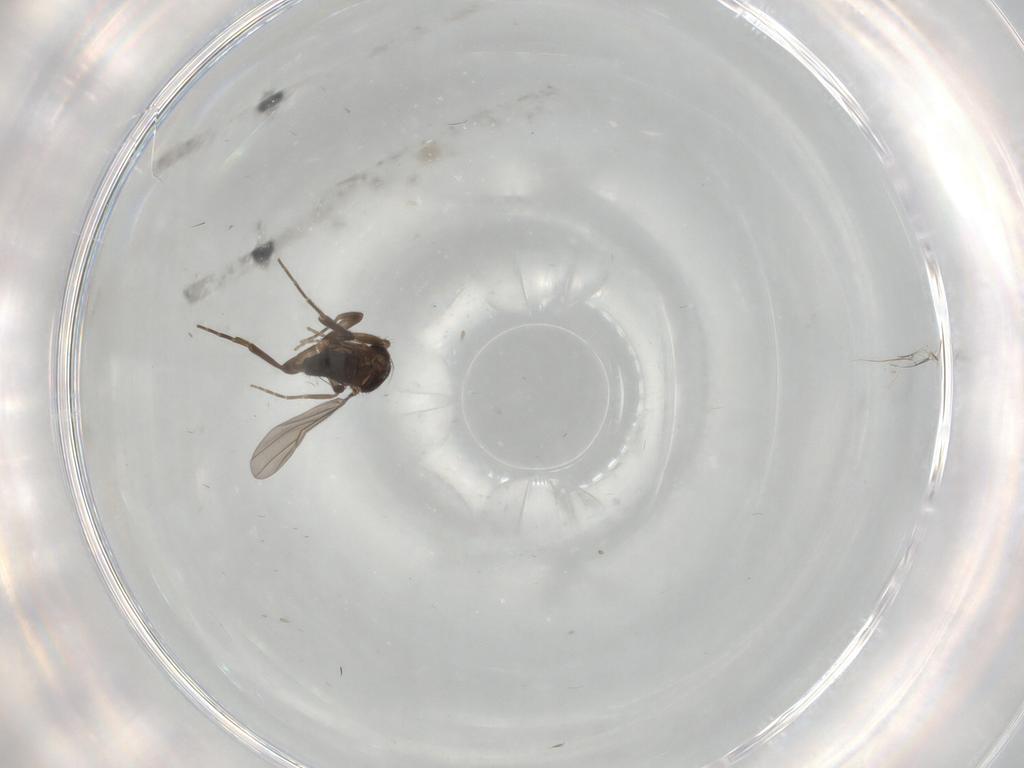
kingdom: Animalia
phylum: Arthropoda
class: Insecta
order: Diptera
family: Phoridae
